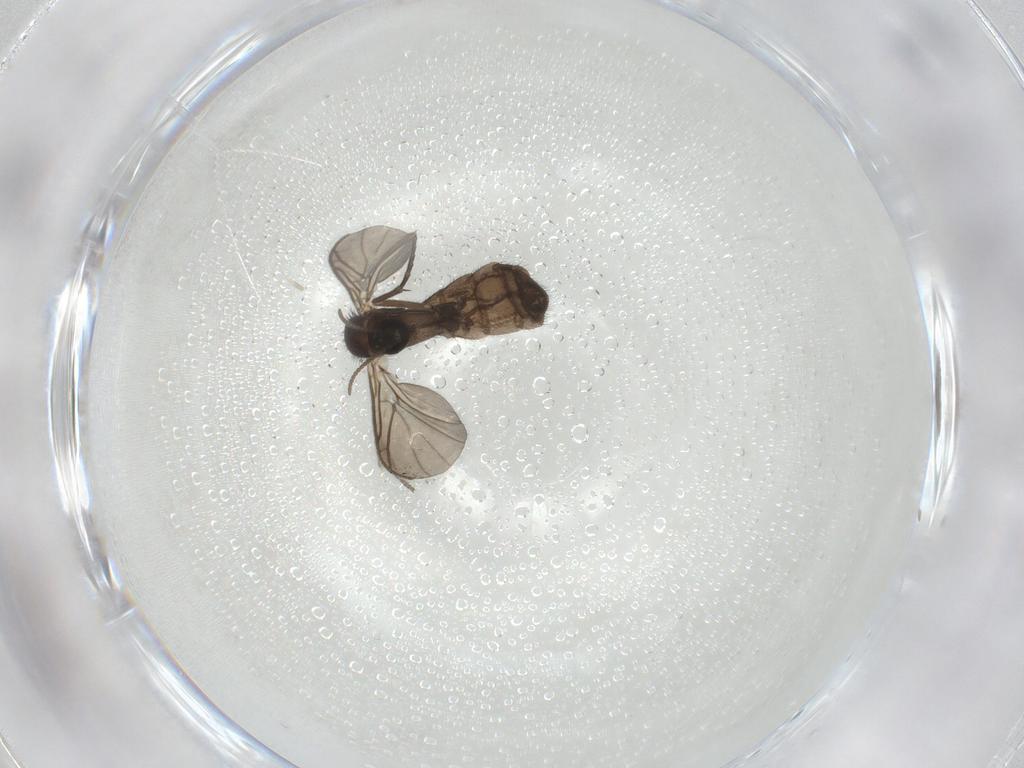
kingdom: Animalia
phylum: Arthropoda
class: Insecta
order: Diptera
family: Keroplatidae
